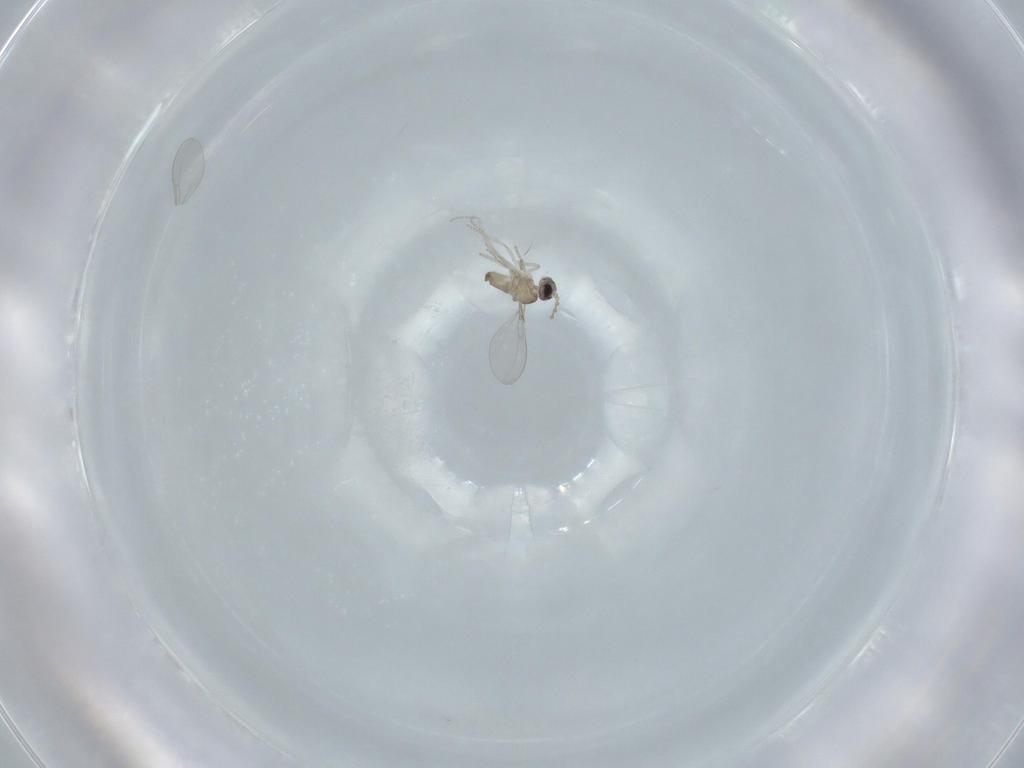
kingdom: Animalia
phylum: Arthropoda
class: Insecta
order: Diptera
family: Cecidomyiidae
